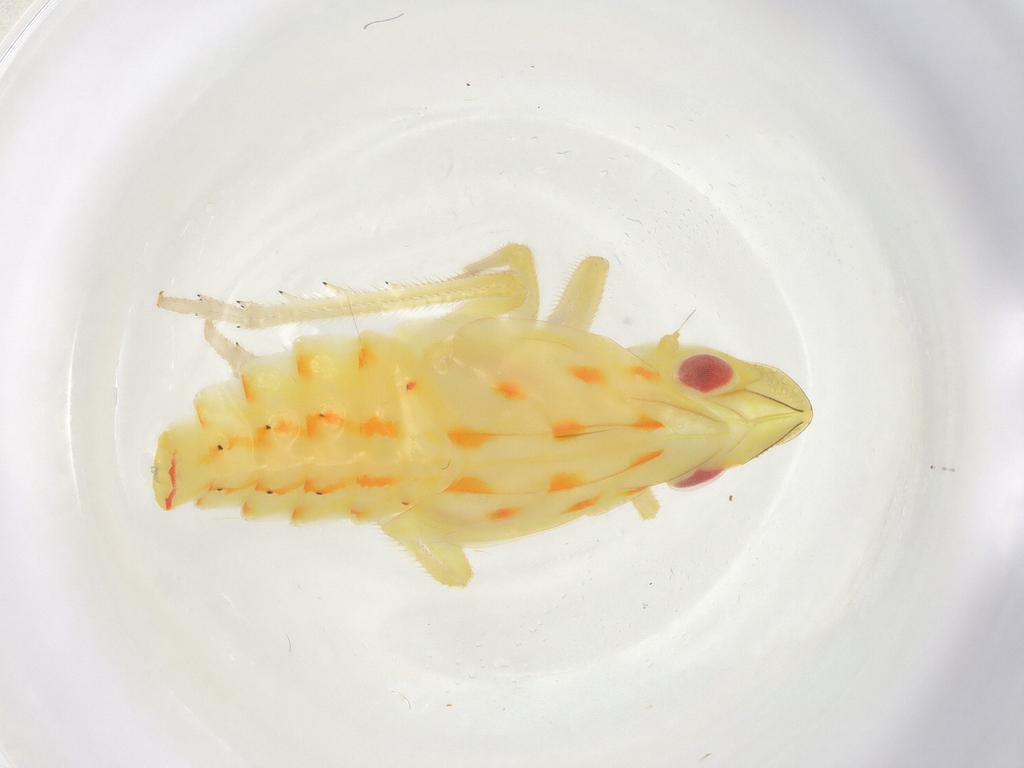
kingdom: Animalia
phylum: Arthropoda
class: Insecta
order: Hemiptera
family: Tropiduchidae
